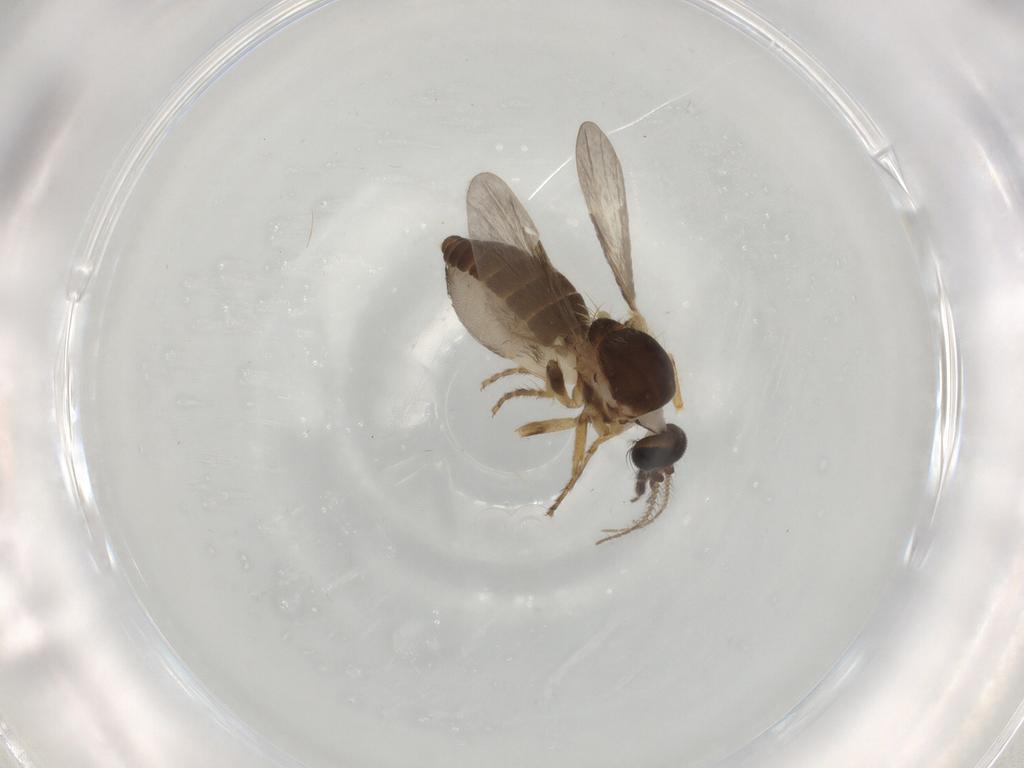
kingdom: Animalia
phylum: Arthropoda
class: Insecta
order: Diptera
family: Ceratopogonidae
